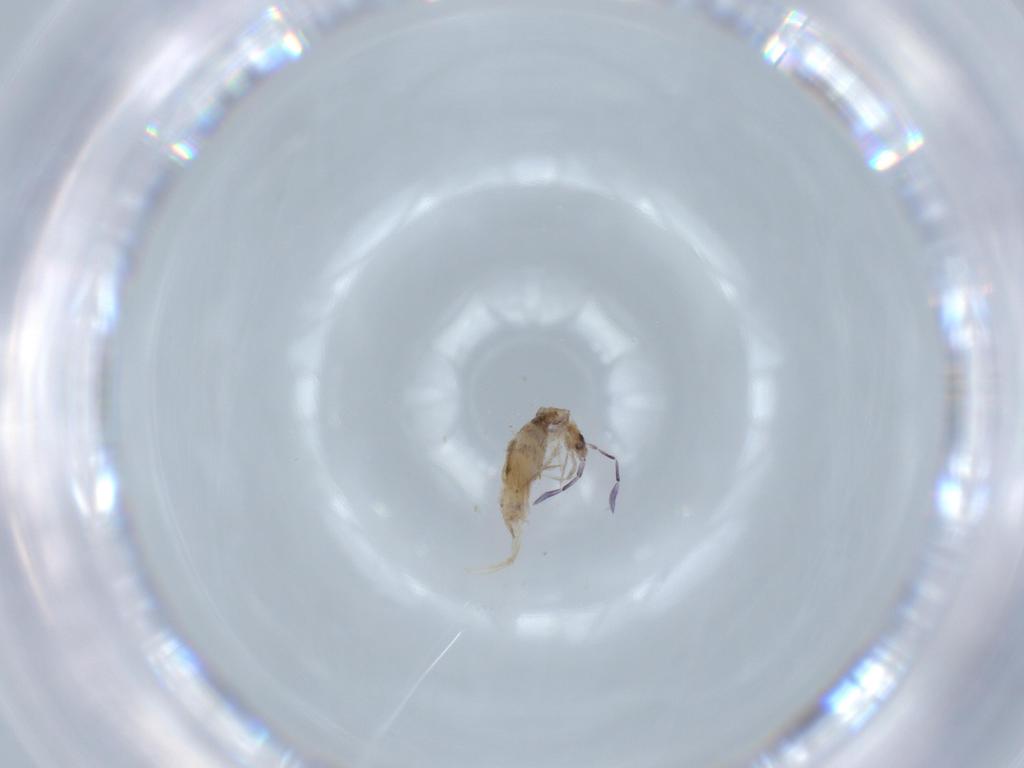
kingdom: Animalia
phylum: Arthropoda
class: Collembola
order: Poduromorpha
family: Hypogastruridae
